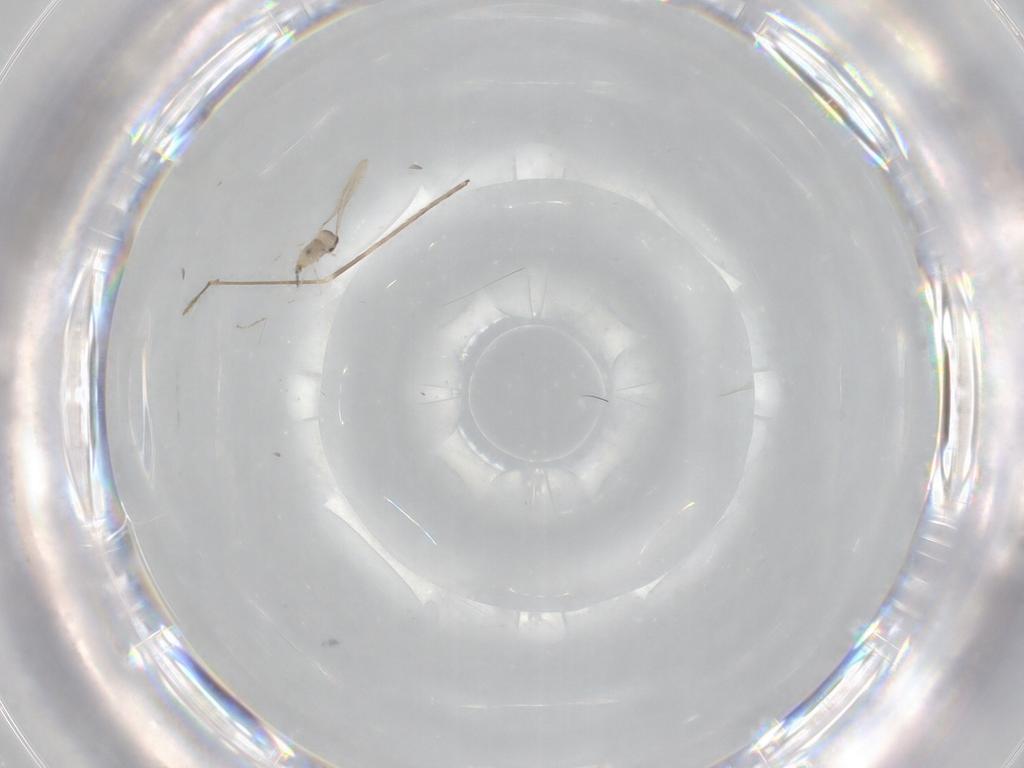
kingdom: Animalia
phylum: Arthropoda
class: Insecta
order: Diptera
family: Cecidomyiidae
